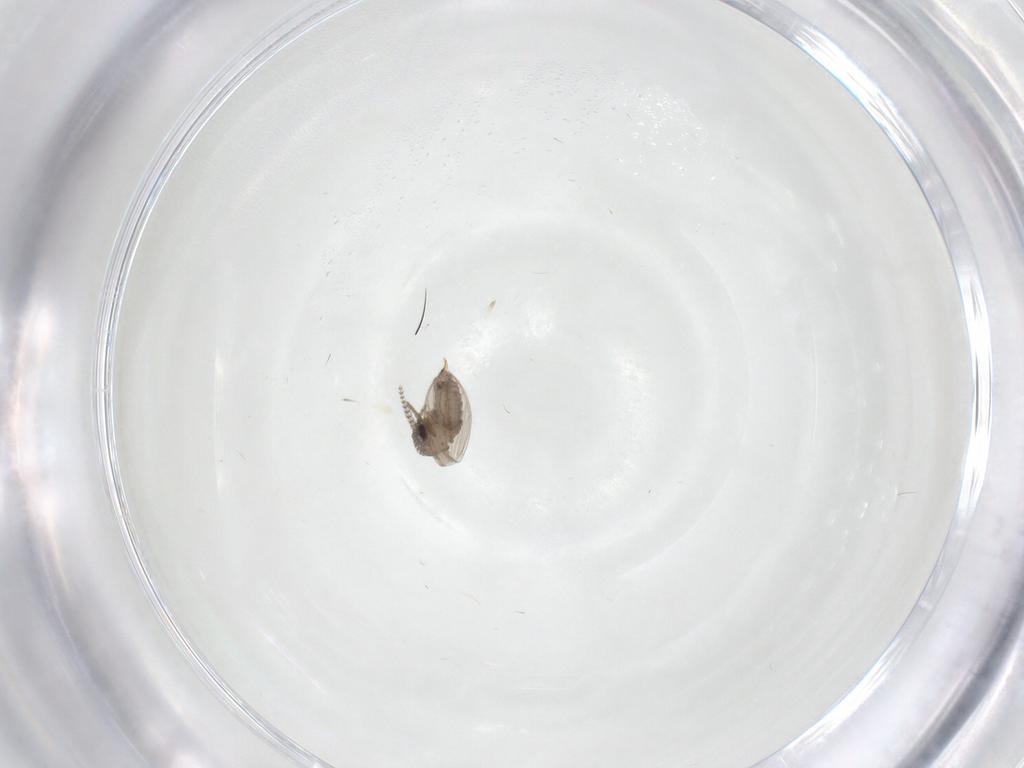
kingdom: Animalia
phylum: Arthropoda
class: Insecta
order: Diptera
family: Psychodidae
